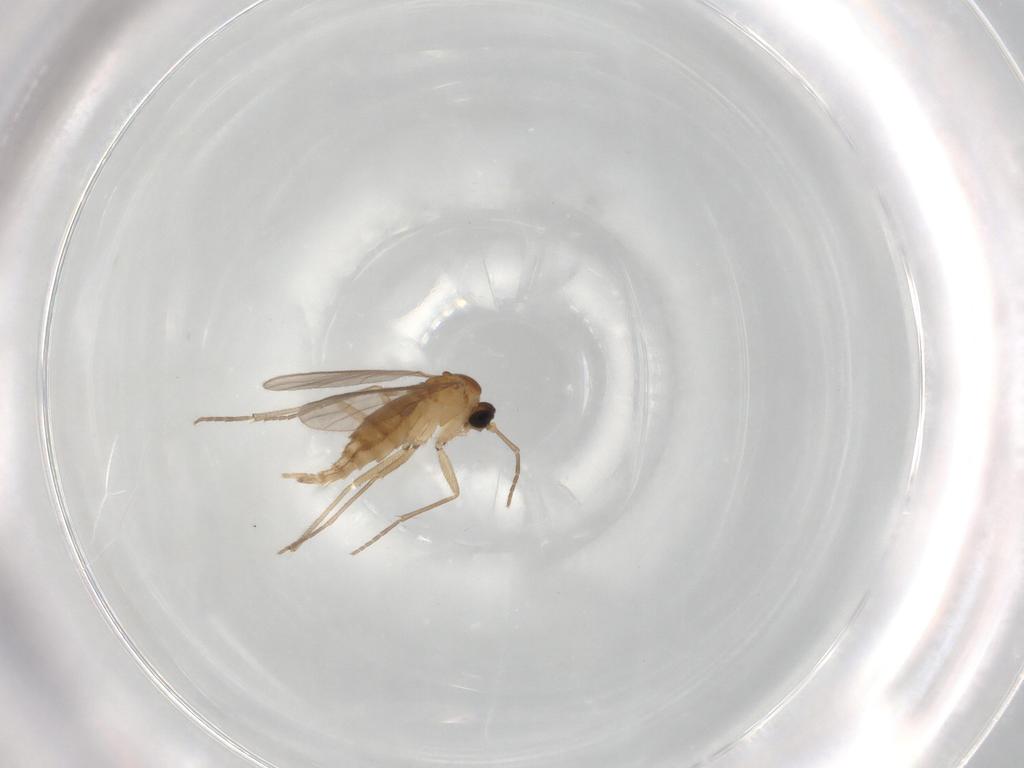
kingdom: Animalia
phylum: Arthropoda
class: Insecta
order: Diptera
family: Sciaridae
